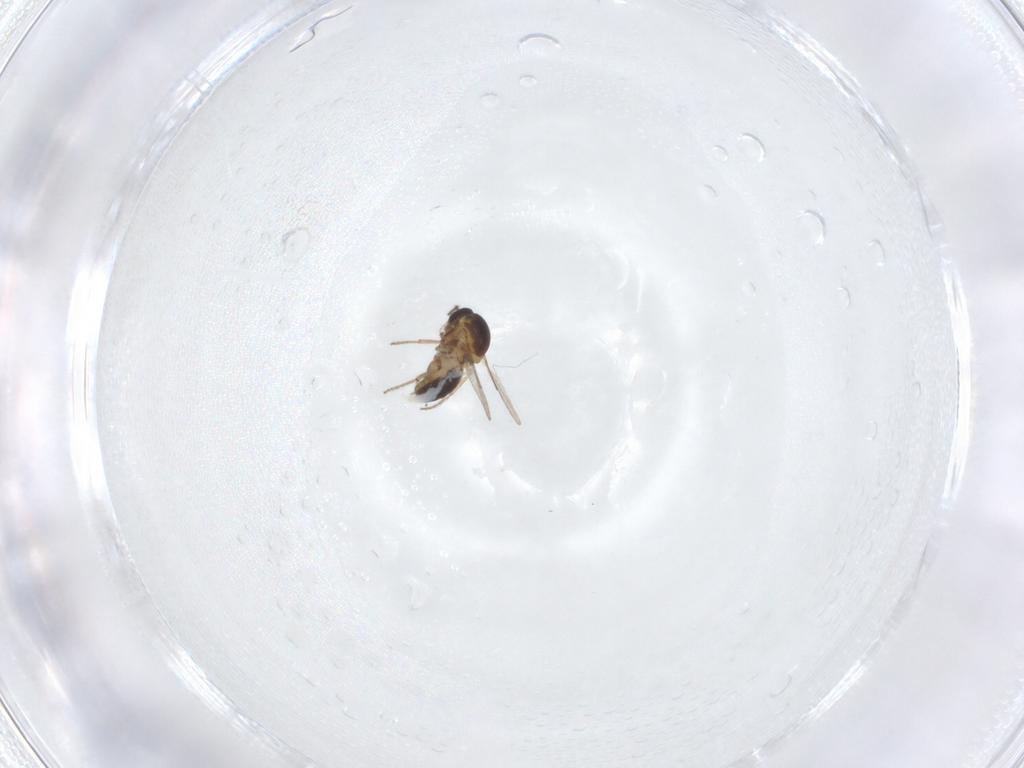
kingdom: Animalia
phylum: Arthropoda
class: Insecta
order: Diptera
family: Ceratopogonidae
